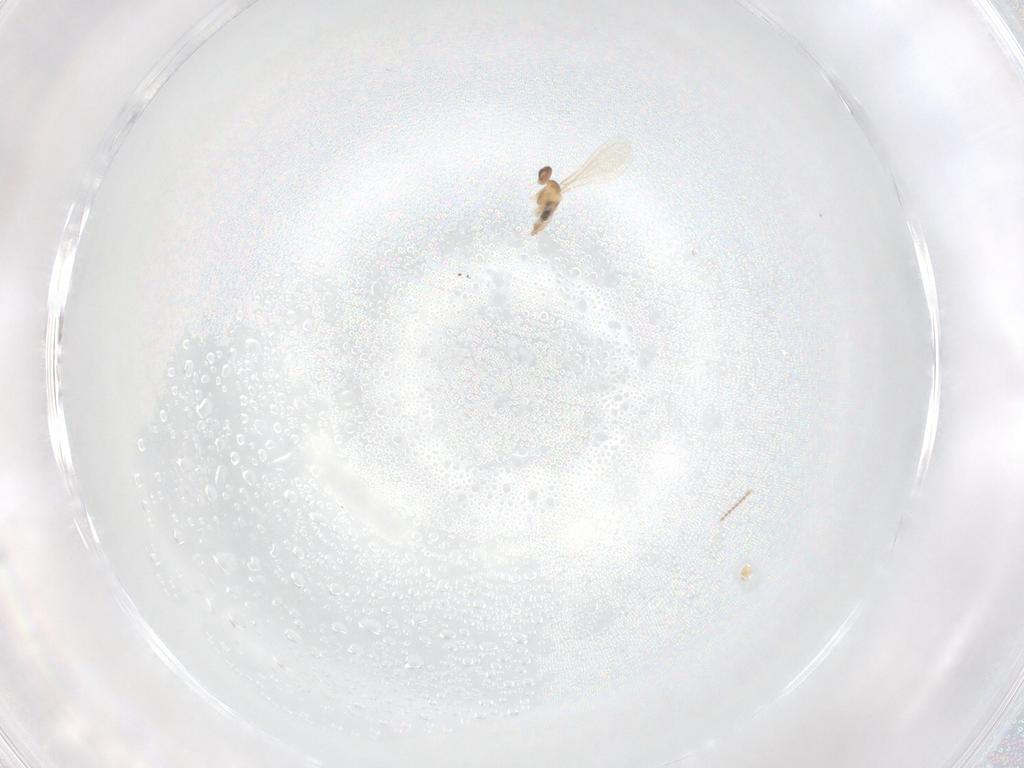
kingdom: Animalia
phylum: Arthropoda
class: Insecta
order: Diptera
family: Cecidomyiidae
